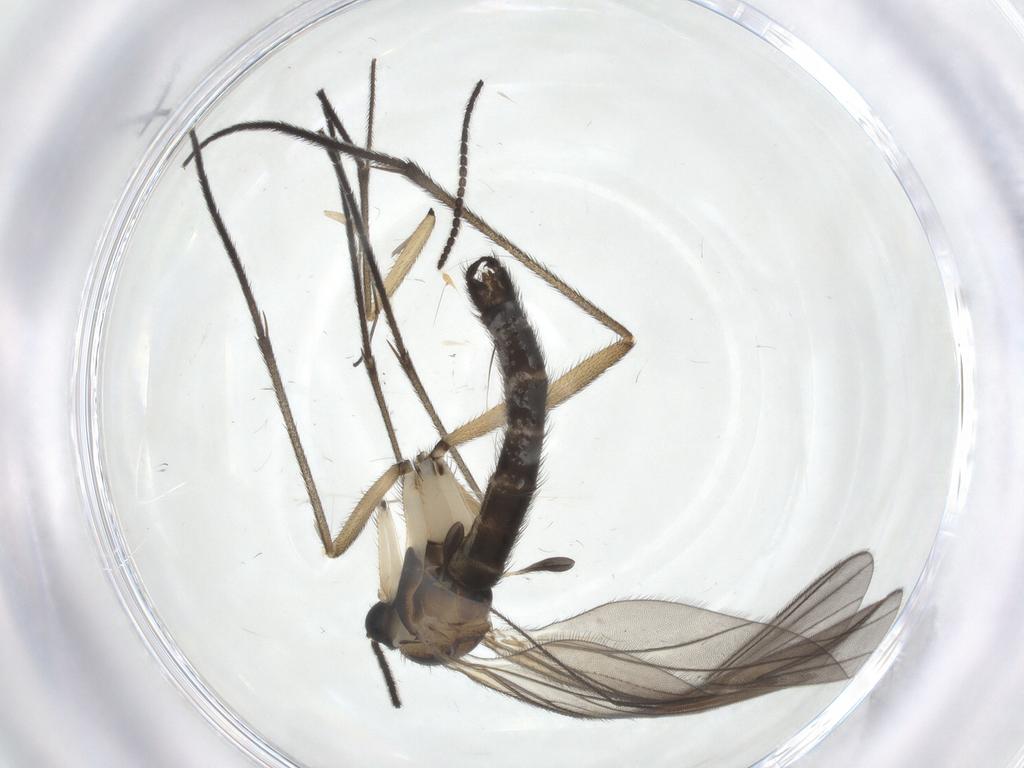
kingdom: Animalia
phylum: Arthropoda
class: Insecta
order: Diptera
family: Sciaridae
